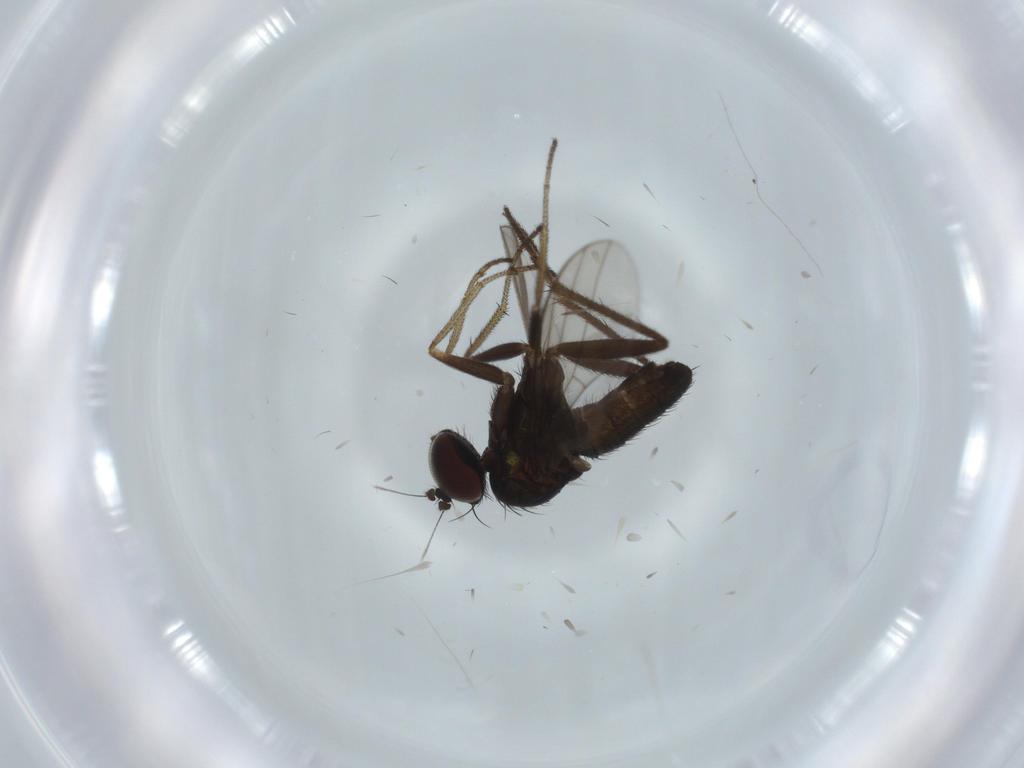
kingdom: Animalia
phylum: Arthropoda
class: Insecta
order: Diptera
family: Dolichopodidae
